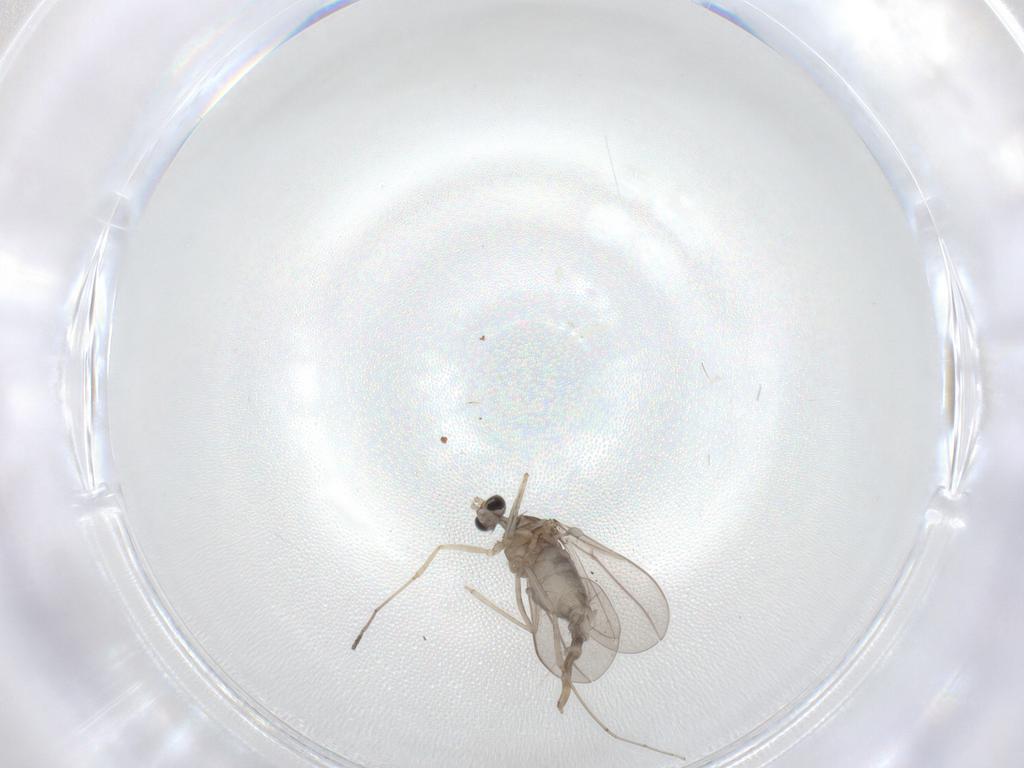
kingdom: Animalia
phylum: Arthropoda
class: Insecta
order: Diptera
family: Cecidomyiidae
